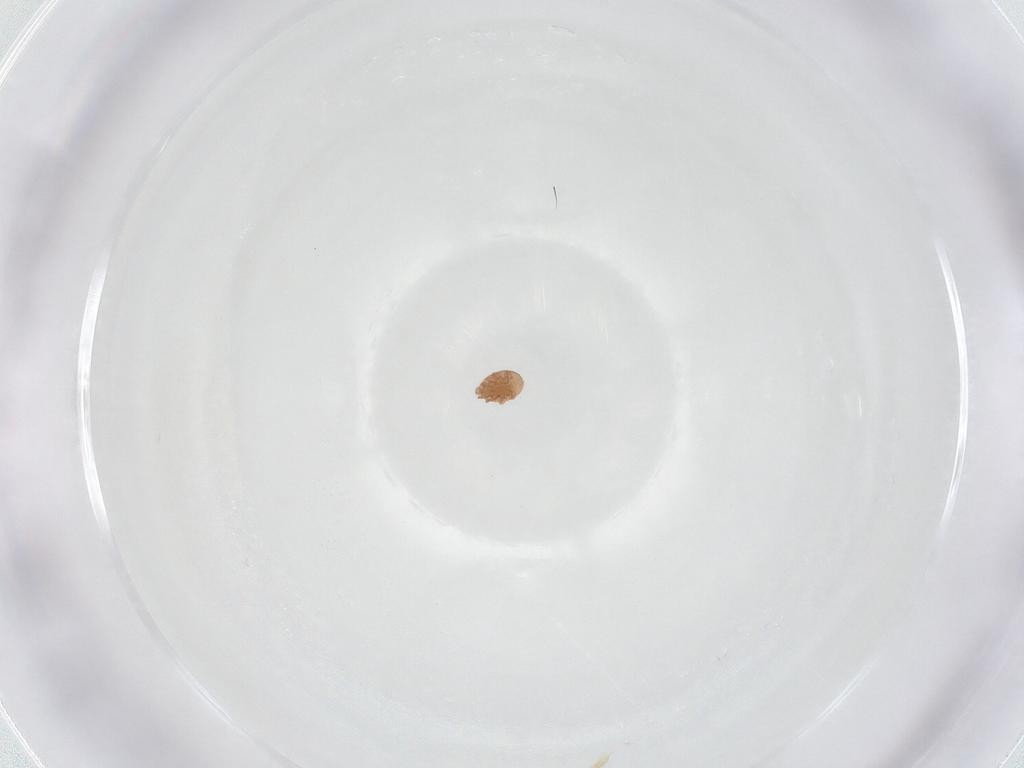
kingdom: Animalia
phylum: Arthropoda
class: Arachnida
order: Mesostigmata
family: Trematuridae
